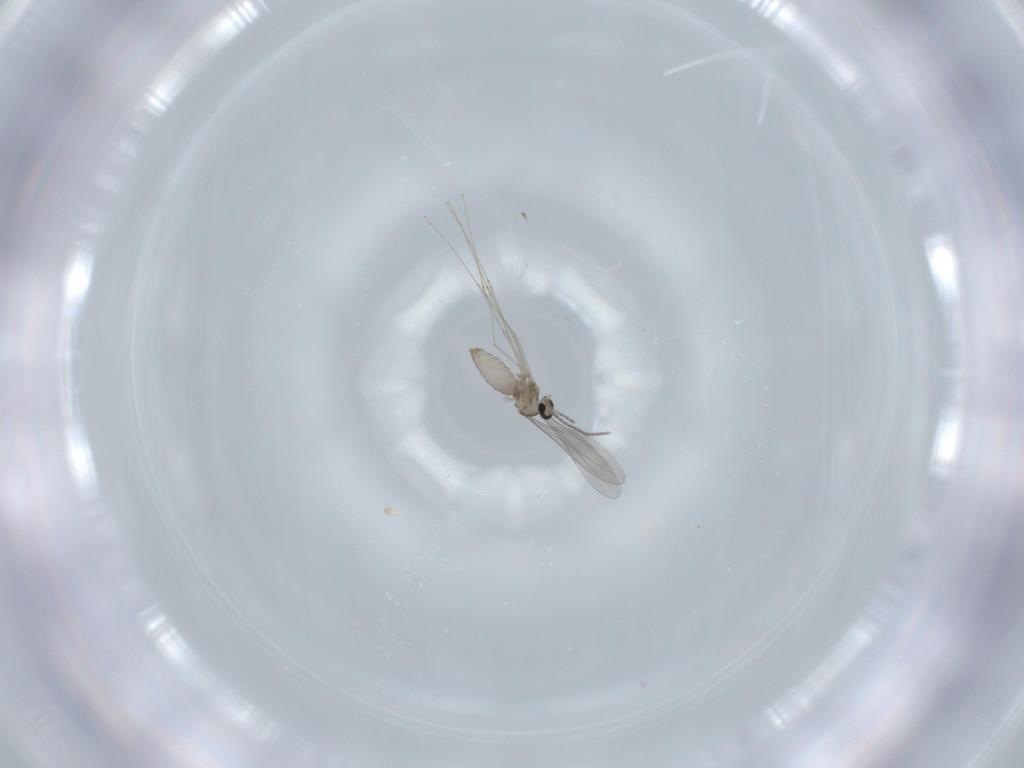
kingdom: Animalia
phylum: Arthropoda
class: Insecta
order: Diptera
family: Cecidomyiidae
